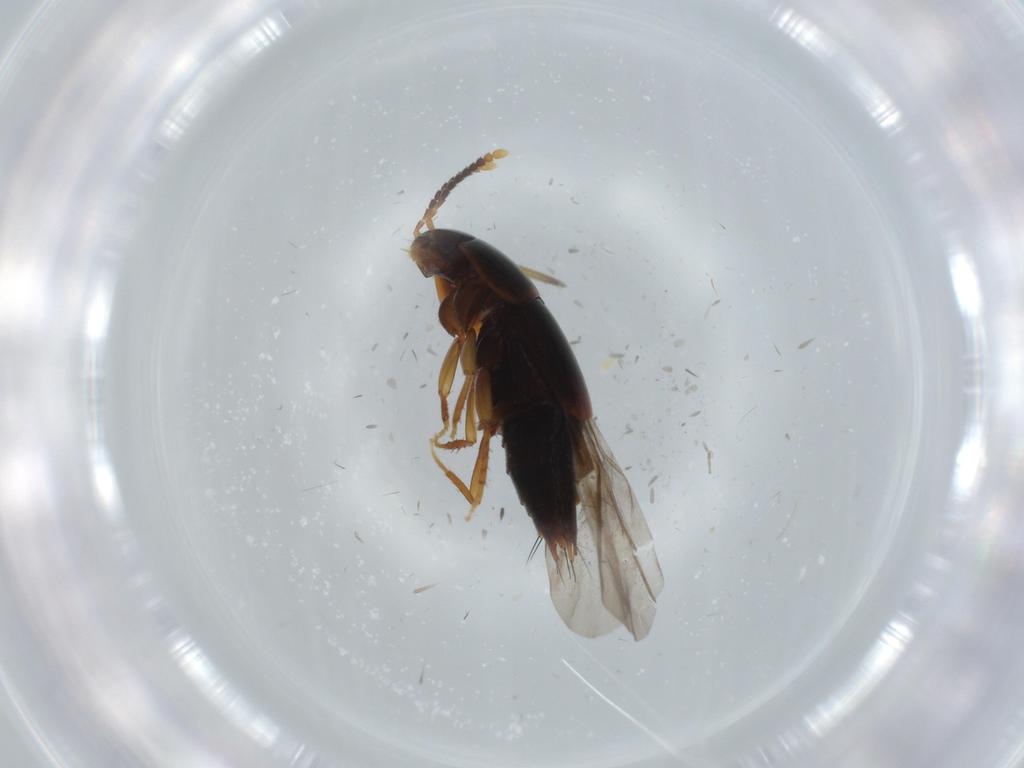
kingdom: Animalia
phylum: Arthropoda
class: Insecta
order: Coleoptera
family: Staphylinidae
